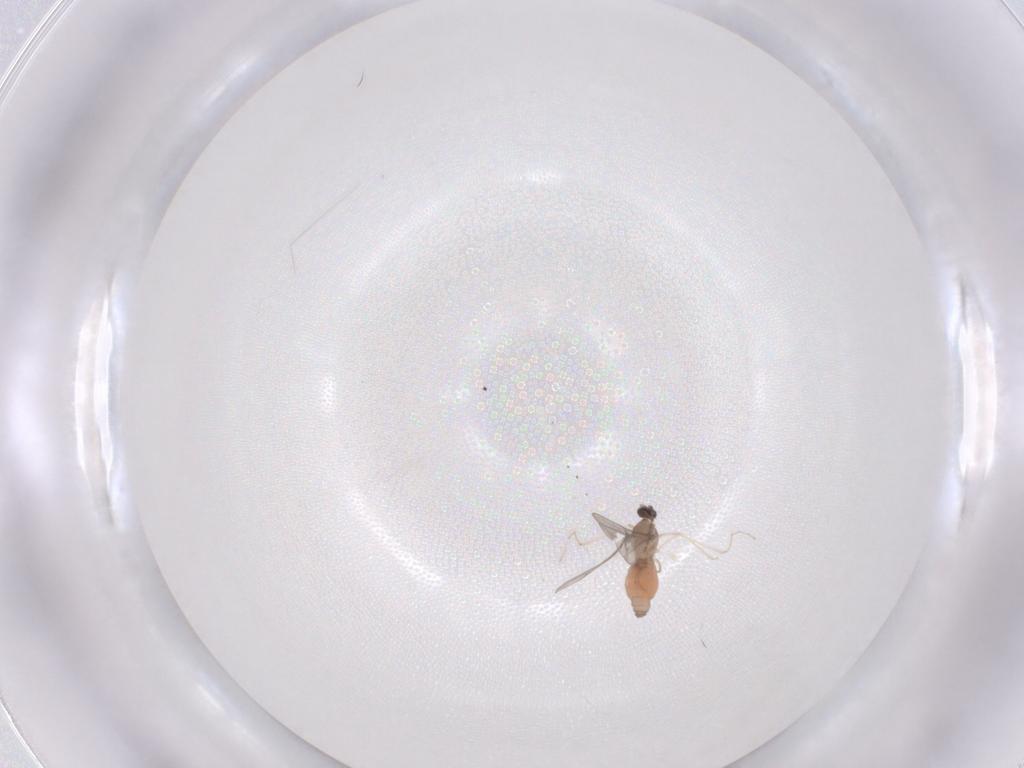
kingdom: Animalia
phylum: Arthropoda
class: Insecta
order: Diptera
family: Cecidomyiidae
